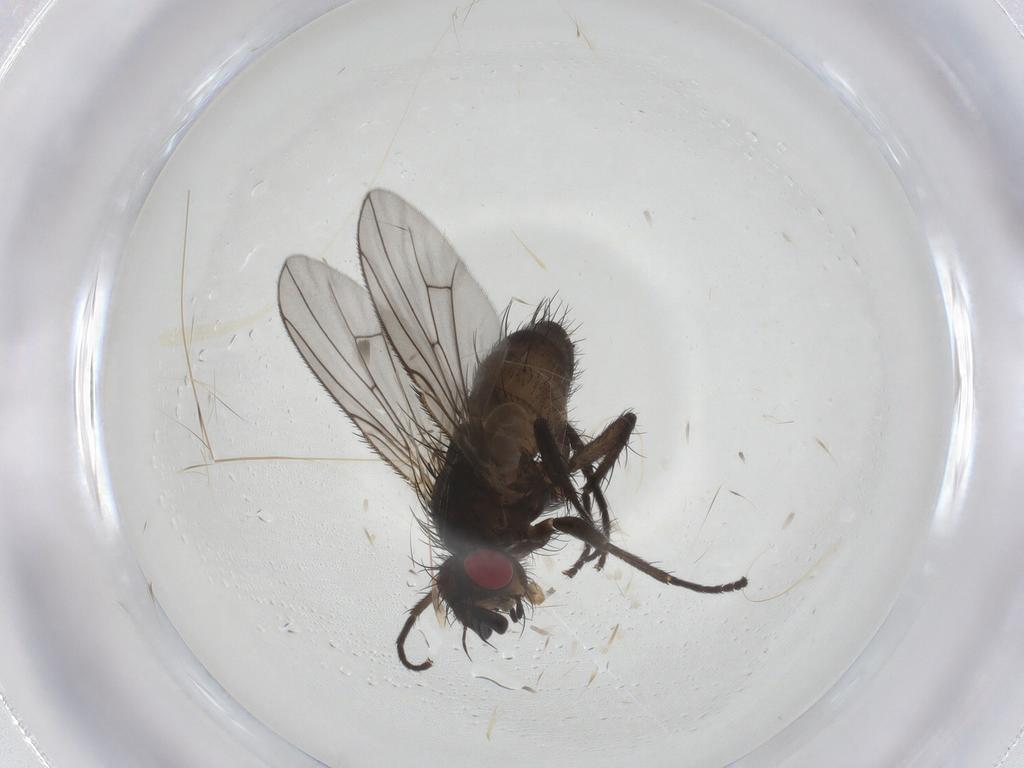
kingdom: Animalia
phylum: Arthropoda
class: Insecta
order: Diptera
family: Tachinidae
